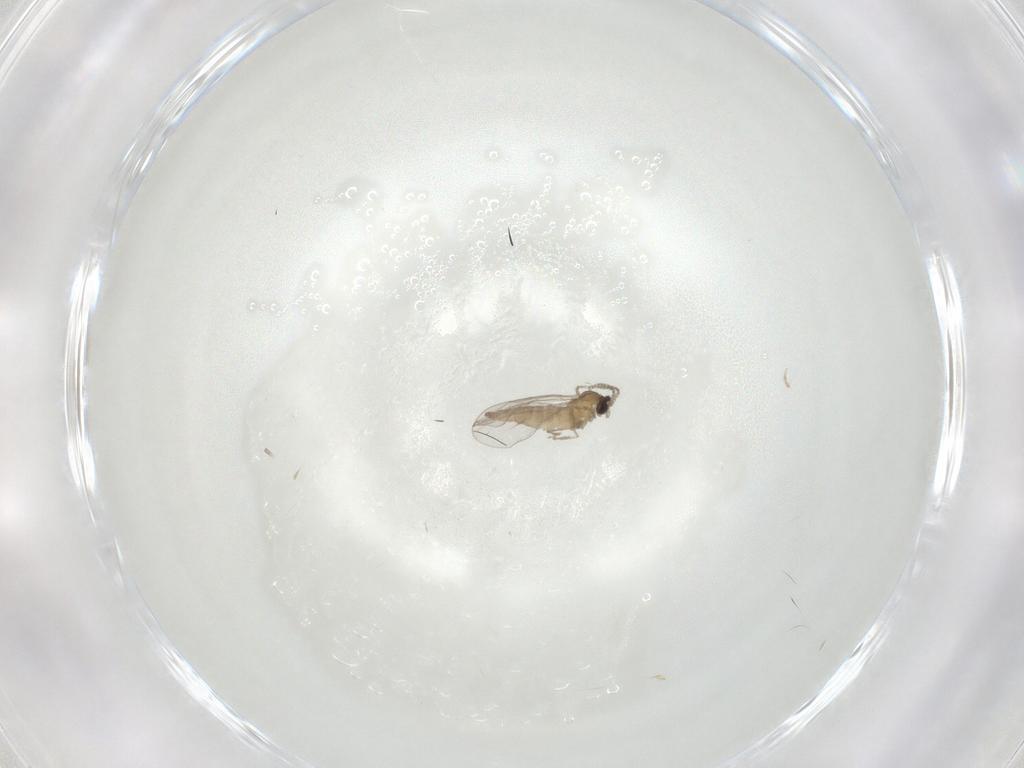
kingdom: Animalia
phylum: Arthropoda
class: Insecta
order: Diptera
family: Cecidomyiidae
